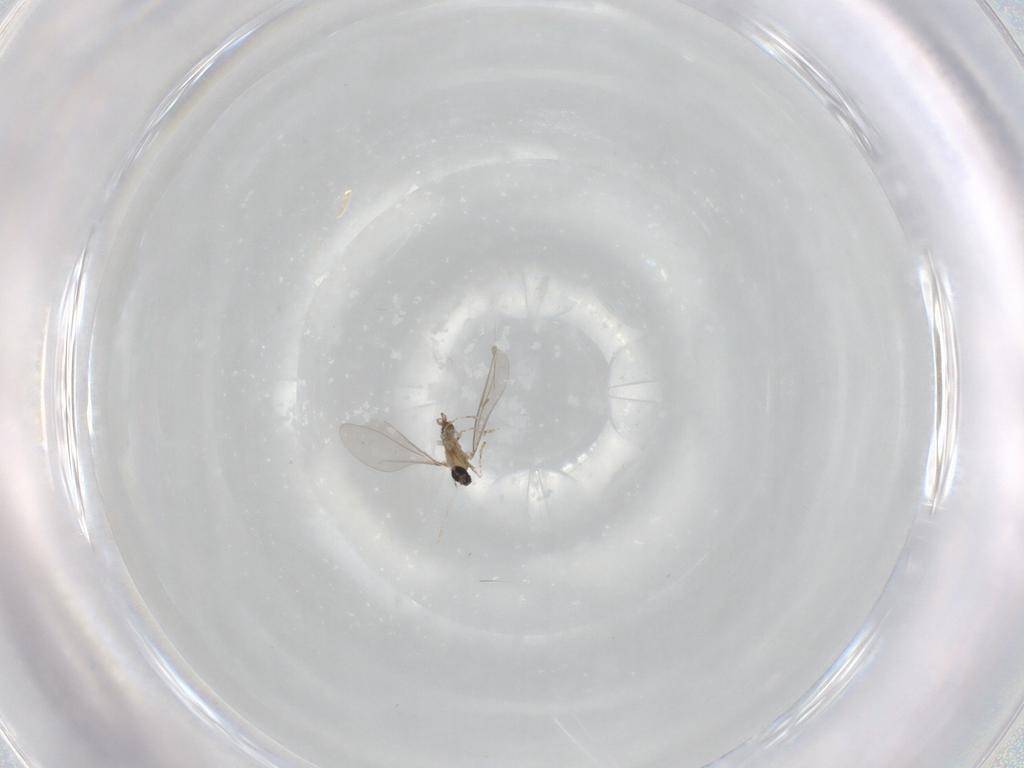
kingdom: Animalia
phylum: Arthropoda
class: Insecta
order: Diptera
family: Cecidomyiidae
